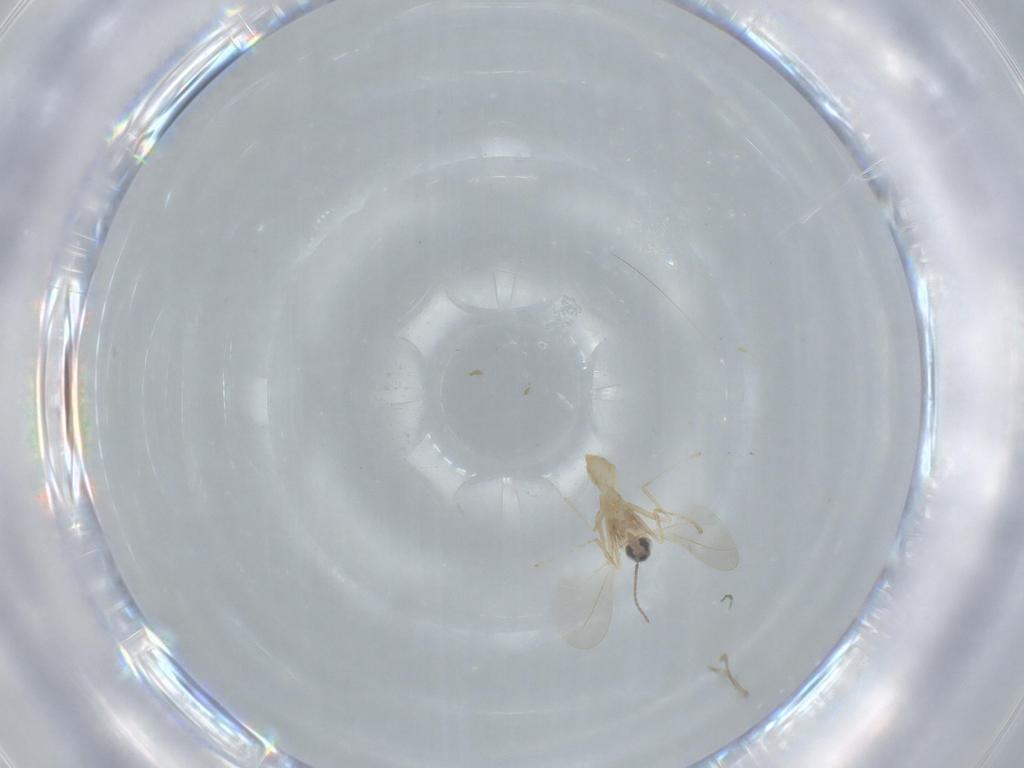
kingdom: Animalia
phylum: Arthropoda
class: Insecta
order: Diptera
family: Cecidomyiidae
